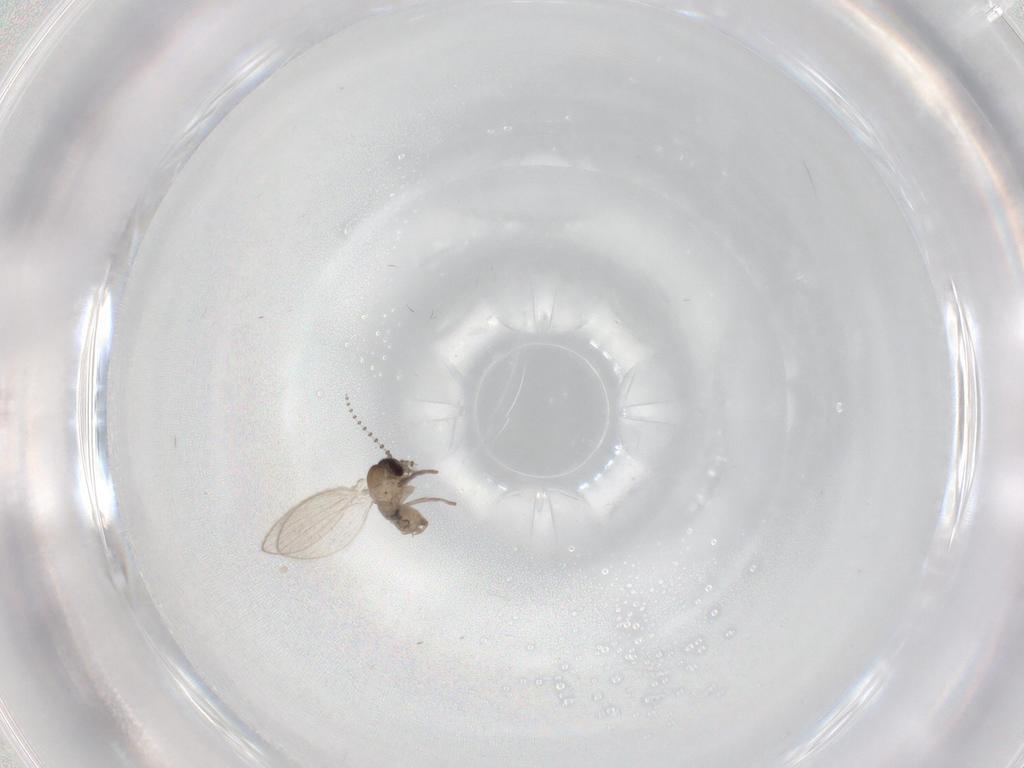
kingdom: Animalia
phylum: Arthropoda
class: Insecta
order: Diptera
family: Psychodidae
